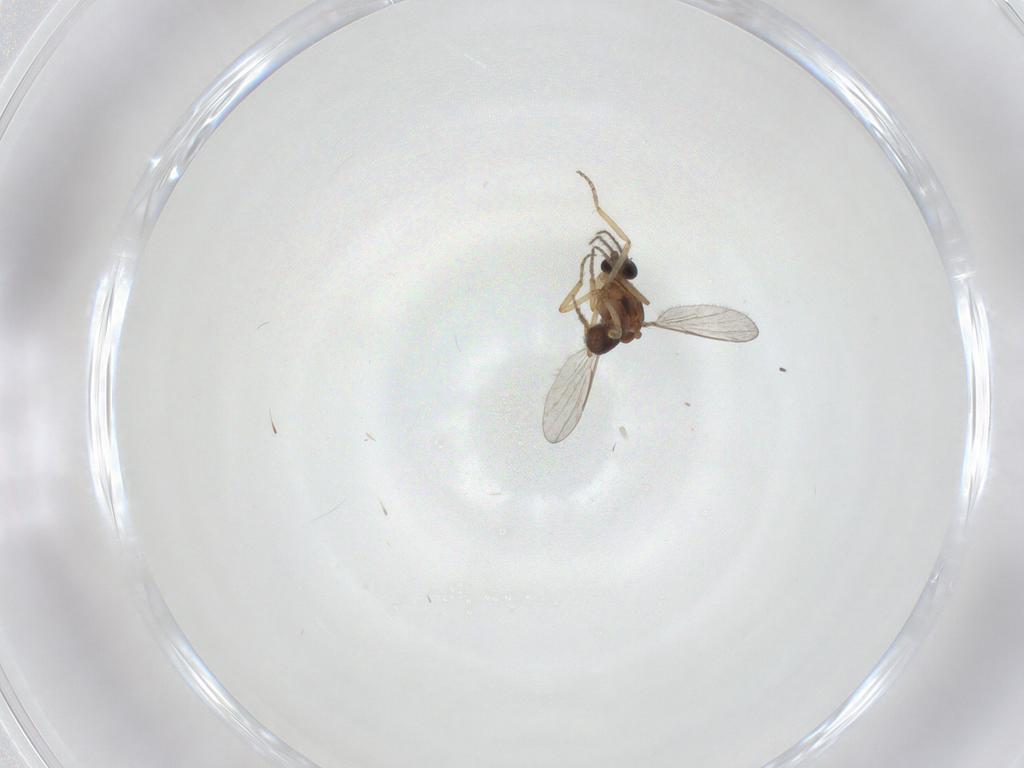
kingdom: Animalia
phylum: Arthropoda
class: Insecta
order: Diptera
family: Ceratopogonidae
